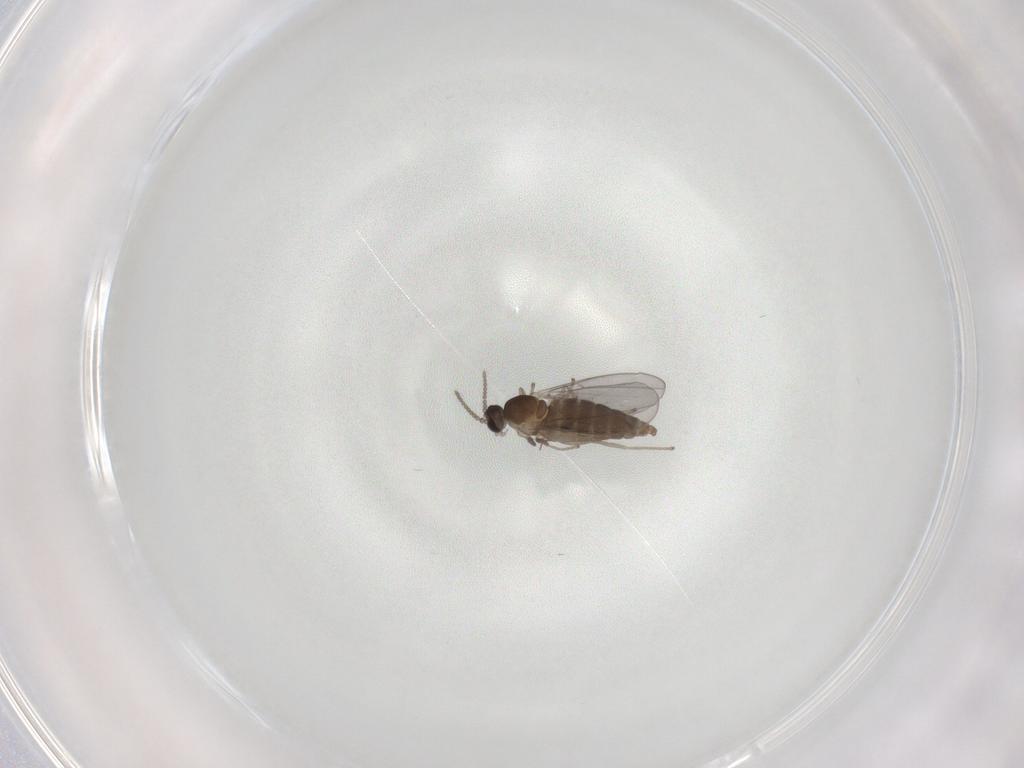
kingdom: Animalia
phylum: Arthropoda
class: Insecta
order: Diptera
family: Cecidomyiidae
